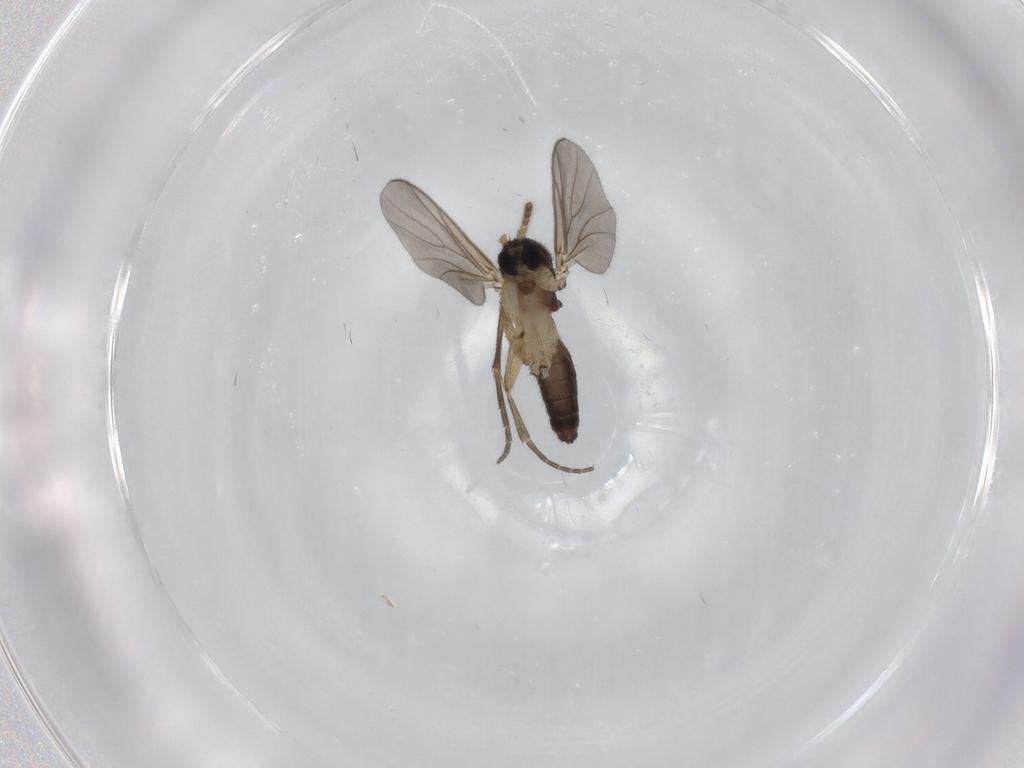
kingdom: Animalia
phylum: Arthropoda
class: Insecta
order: Diptera
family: Mycetophilidae
